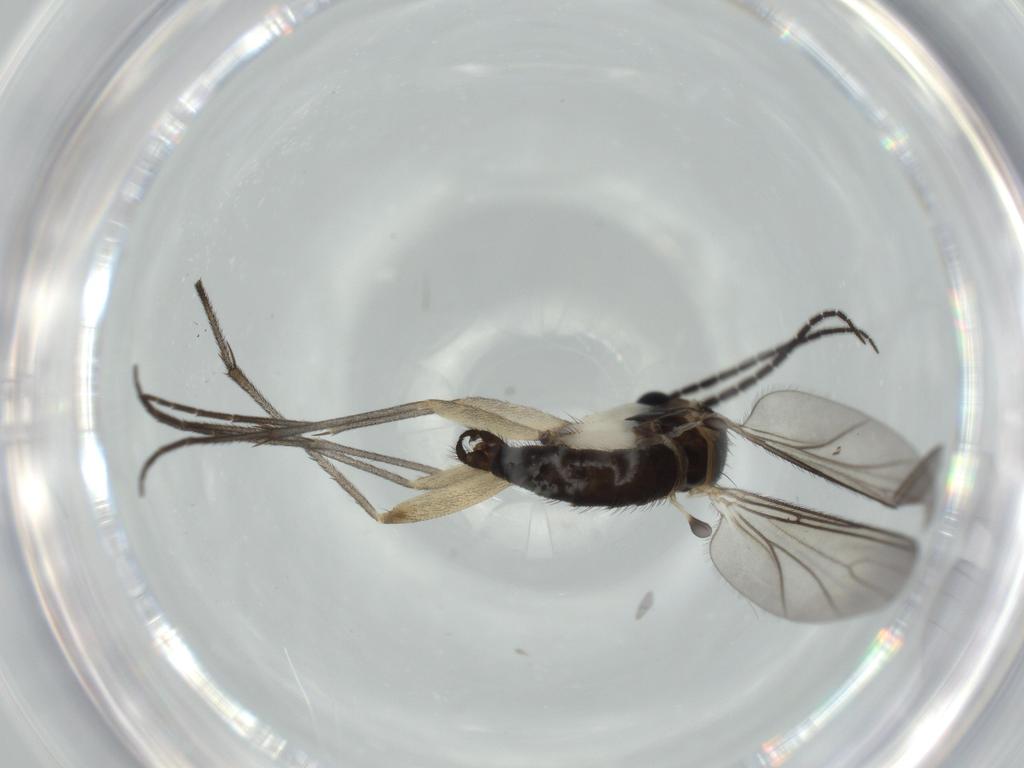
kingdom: Animalia
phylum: Arthropoda
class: Insecta
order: Diptera
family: Sciaridae
